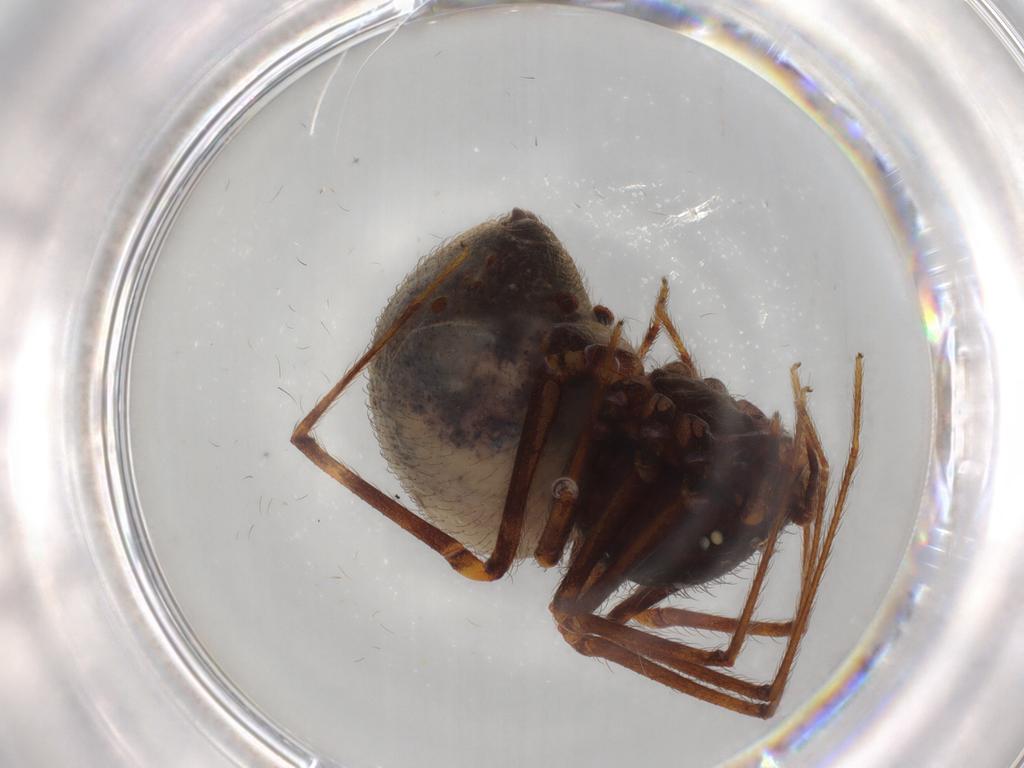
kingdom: Animalia
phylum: Arthropoda
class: Arachnida
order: Araneae
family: Scytodidae
